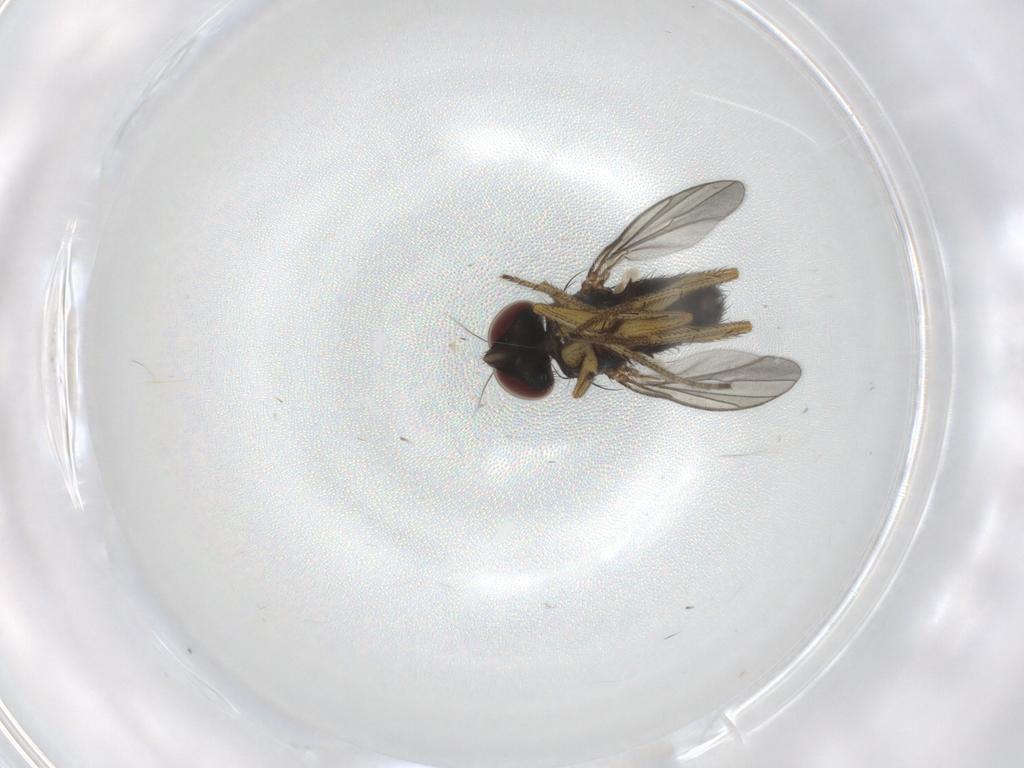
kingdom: Animalia
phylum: Arthropoda
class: Insecta
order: Diptera
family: Dolichopodidae
